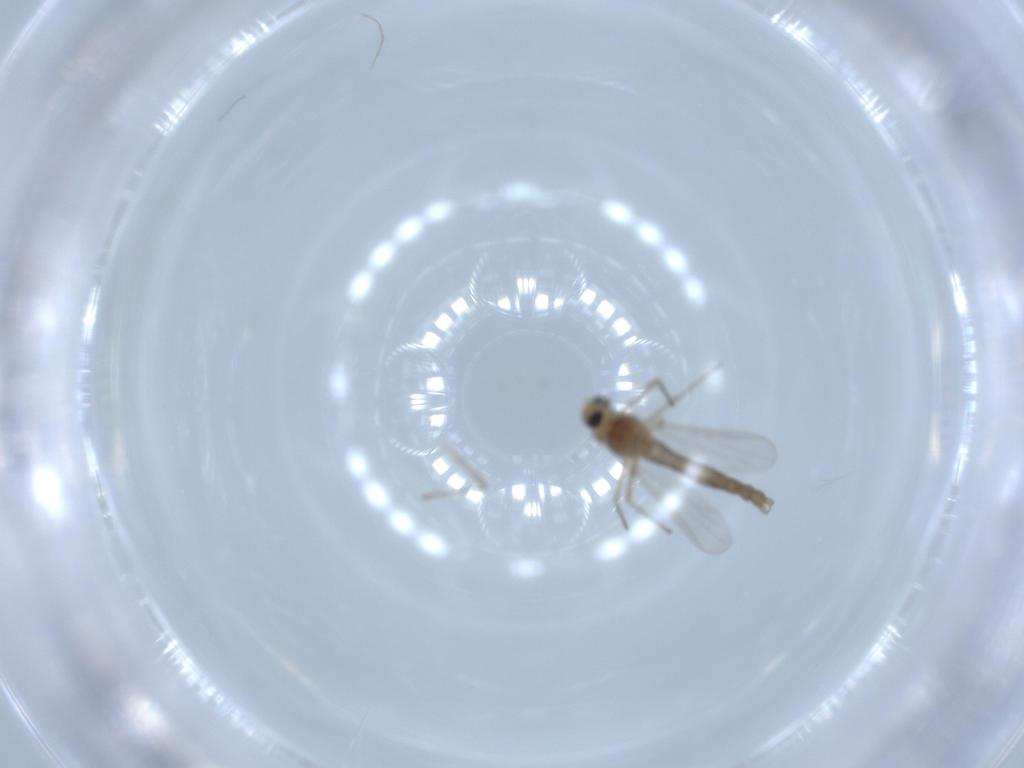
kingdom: Animalia
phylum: Arthropoda
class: Insecta
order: Diptera
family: Chironomidae
